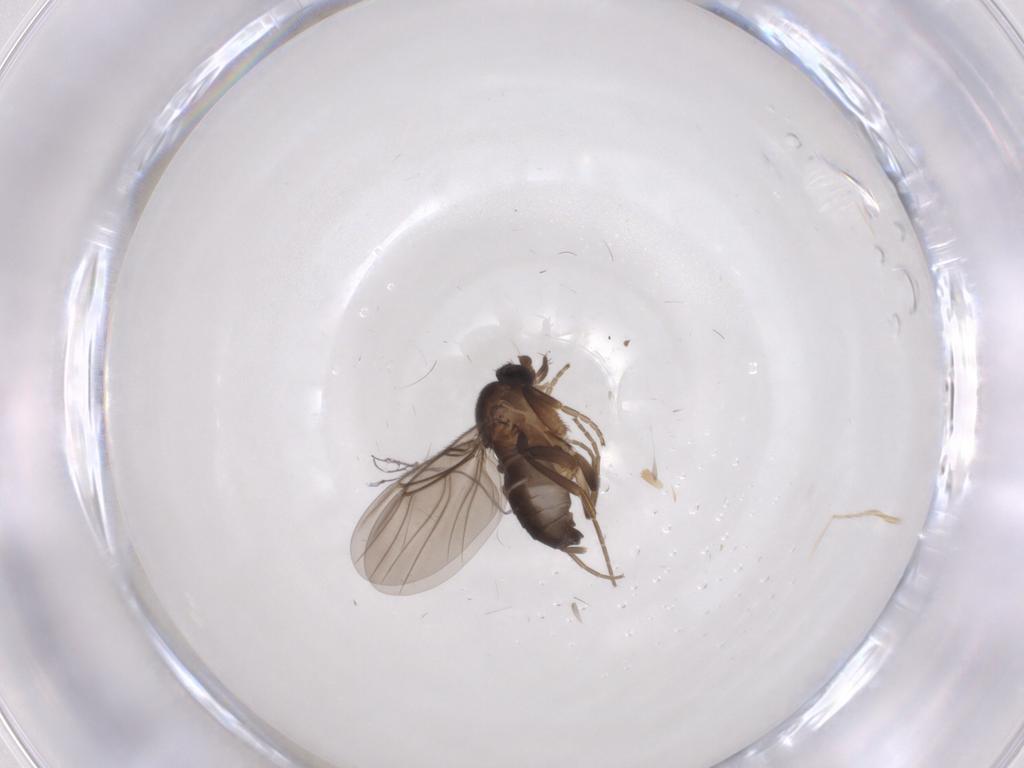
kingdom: Animalia
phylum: Arthropoda
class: Insecta
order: Diptera
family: Phoridae
